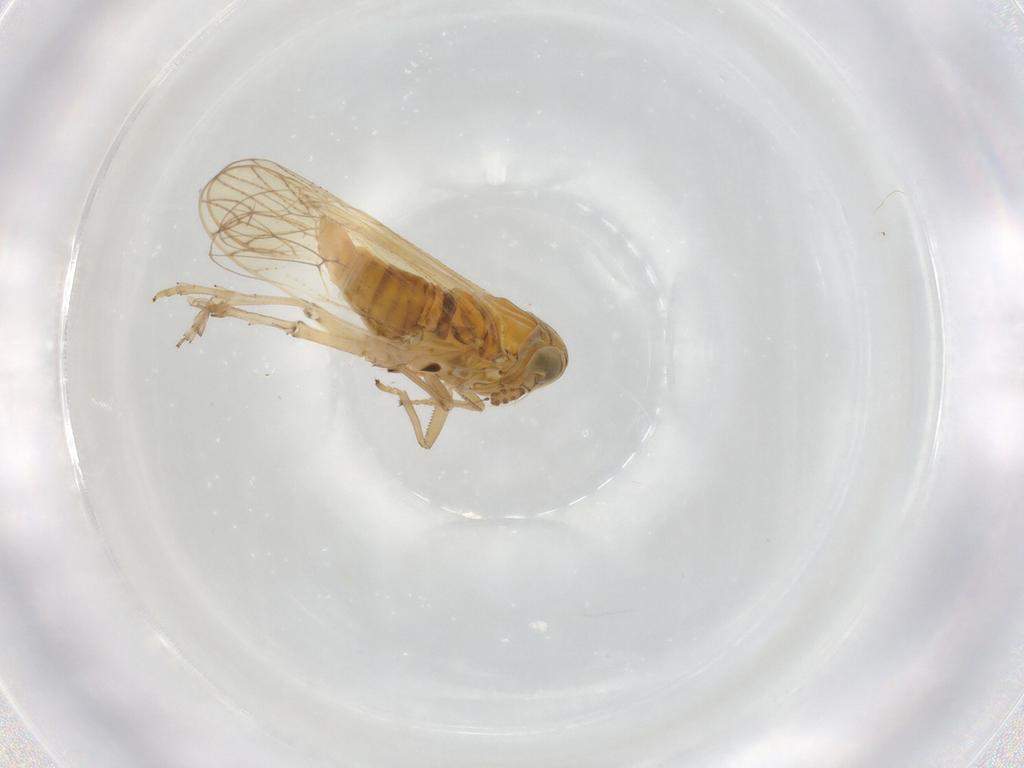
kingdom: Animalia
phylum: Arthropoda
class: Insecta
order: Hemiptera
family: Delphacidae
